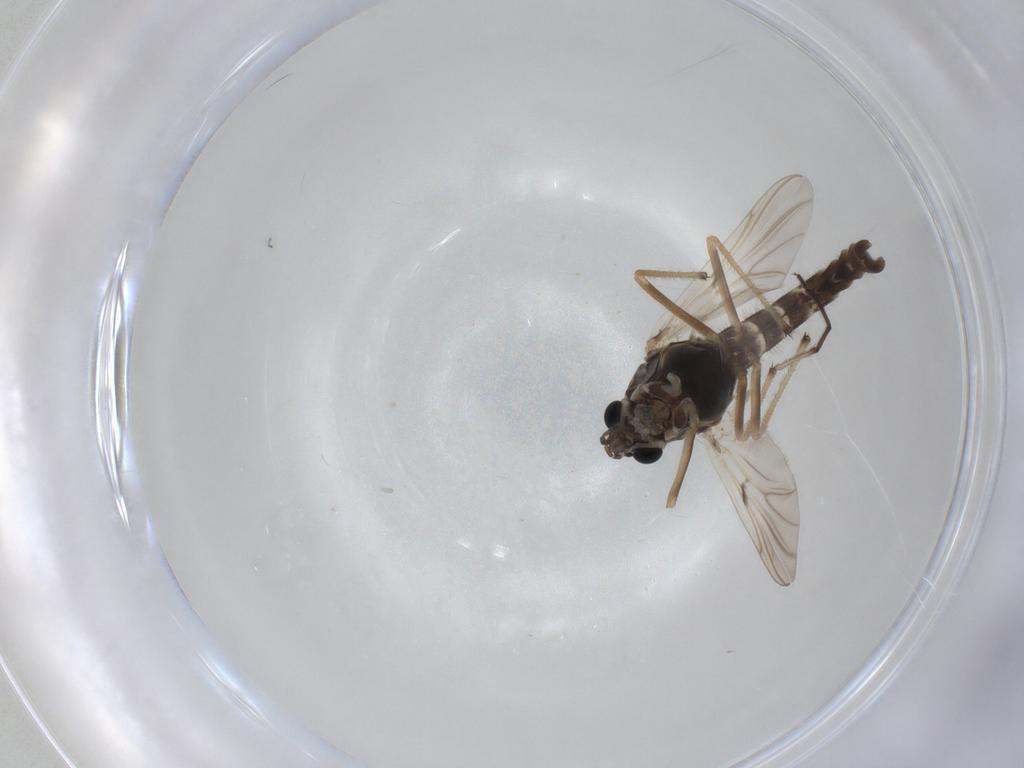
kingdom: Animalia
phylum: Arthropoda
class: Insecta
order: Diptera
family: Chironomidae
